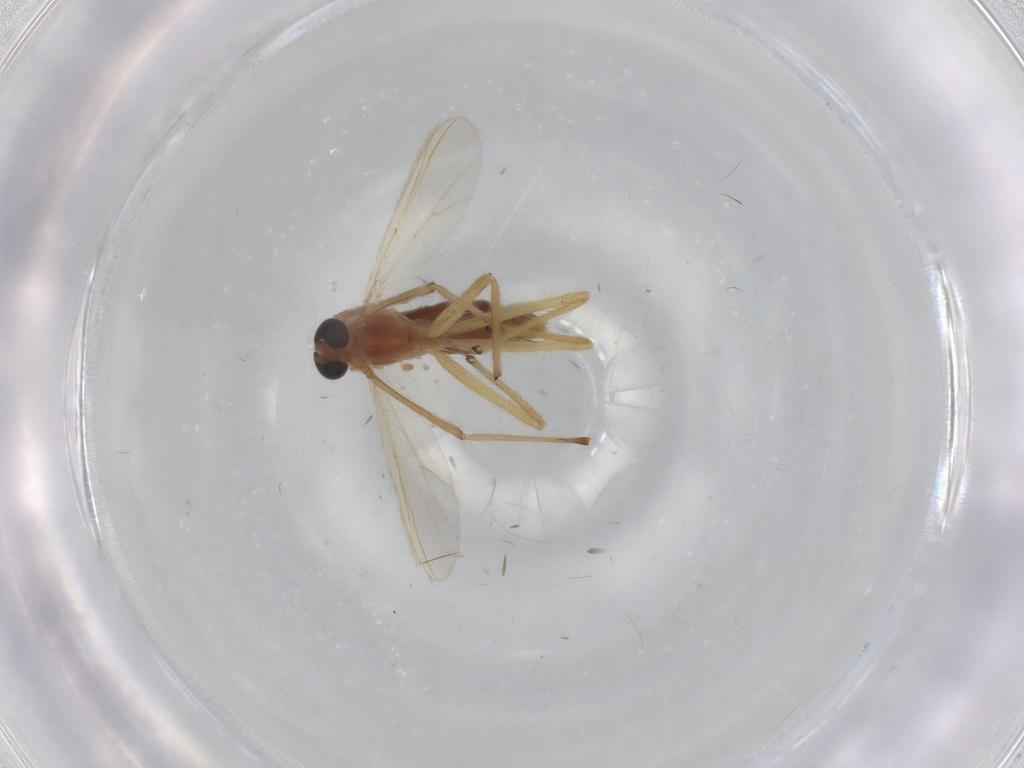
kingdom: Animalia
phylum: Arthropoda
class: Insecta
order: Diptera
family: Chironomidae
